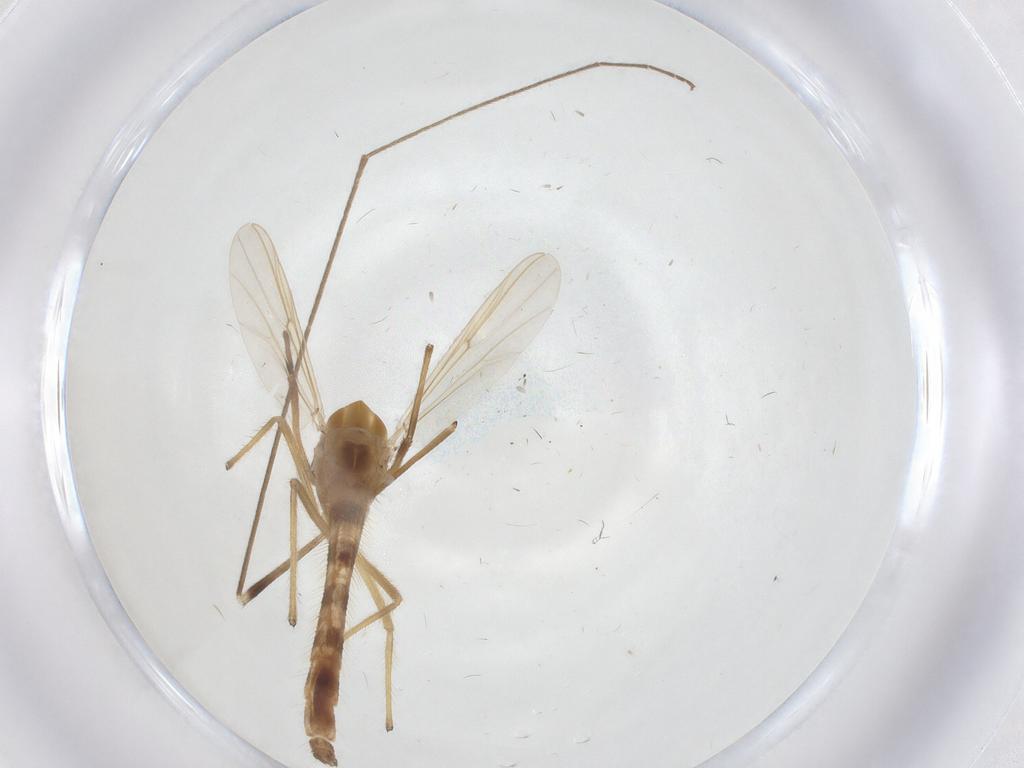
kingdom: Animalia
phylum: Arthropoda
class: Insecta
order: Diptera
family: Chironomidae
